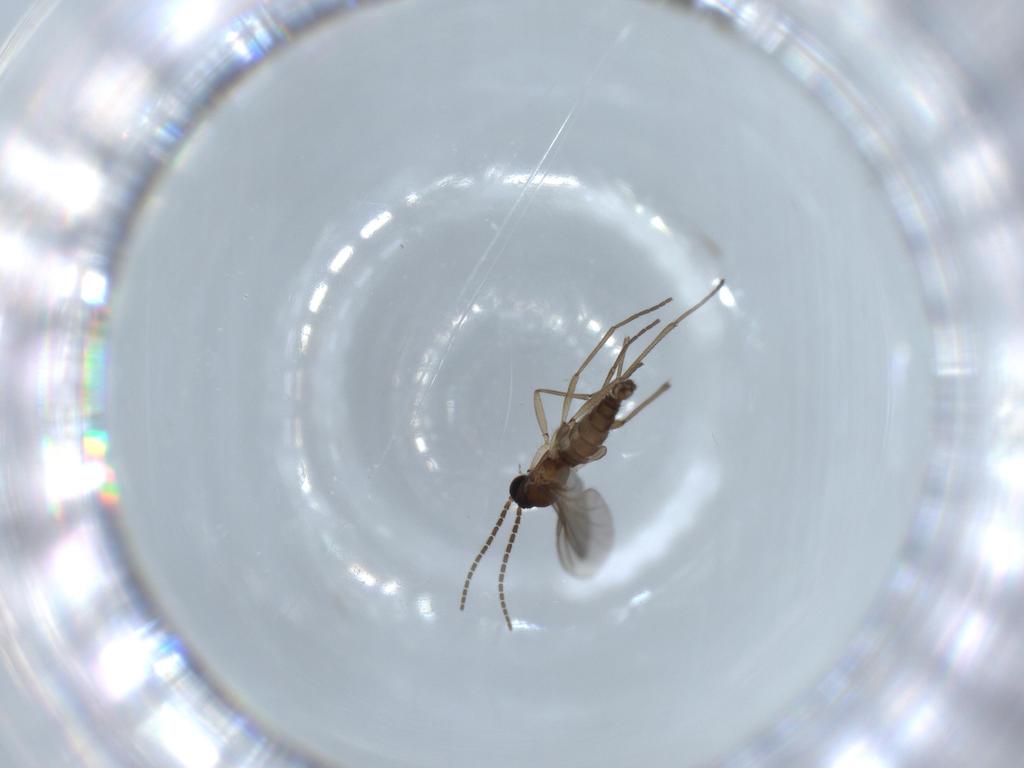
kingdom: Animalia
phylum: Arthropoda
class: Insecta
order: Diptera
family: Sciaridae
